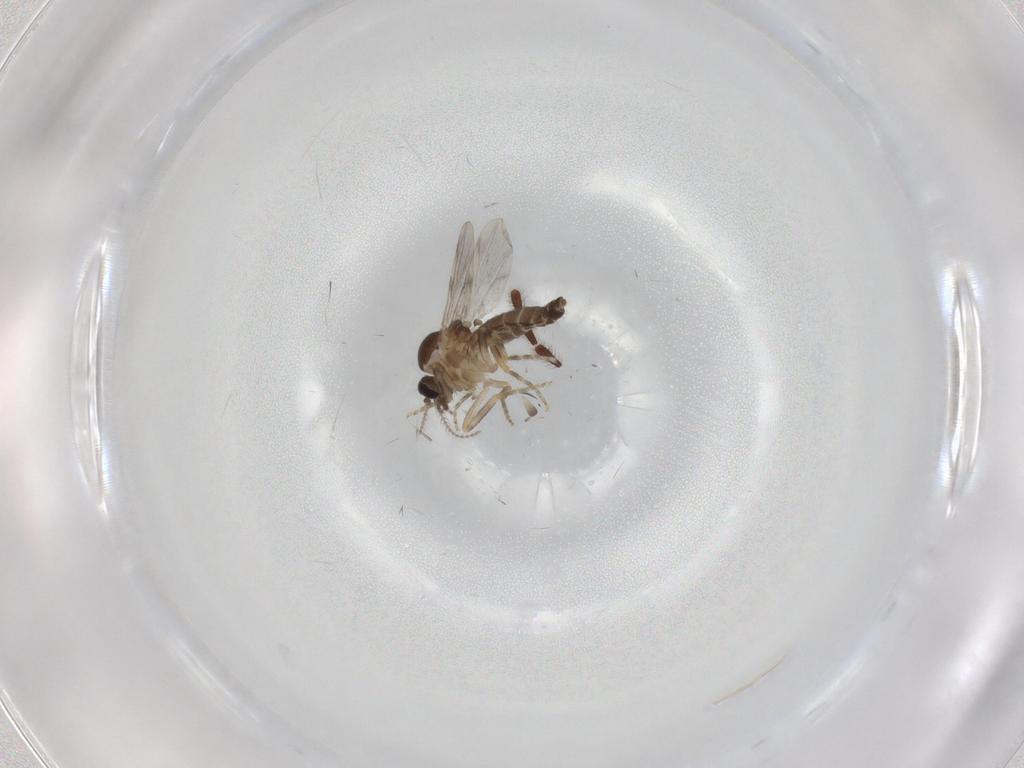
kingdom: Animalia
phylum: Arthropoda
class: Insecta
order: Diptera
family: Ceratopogonidae
